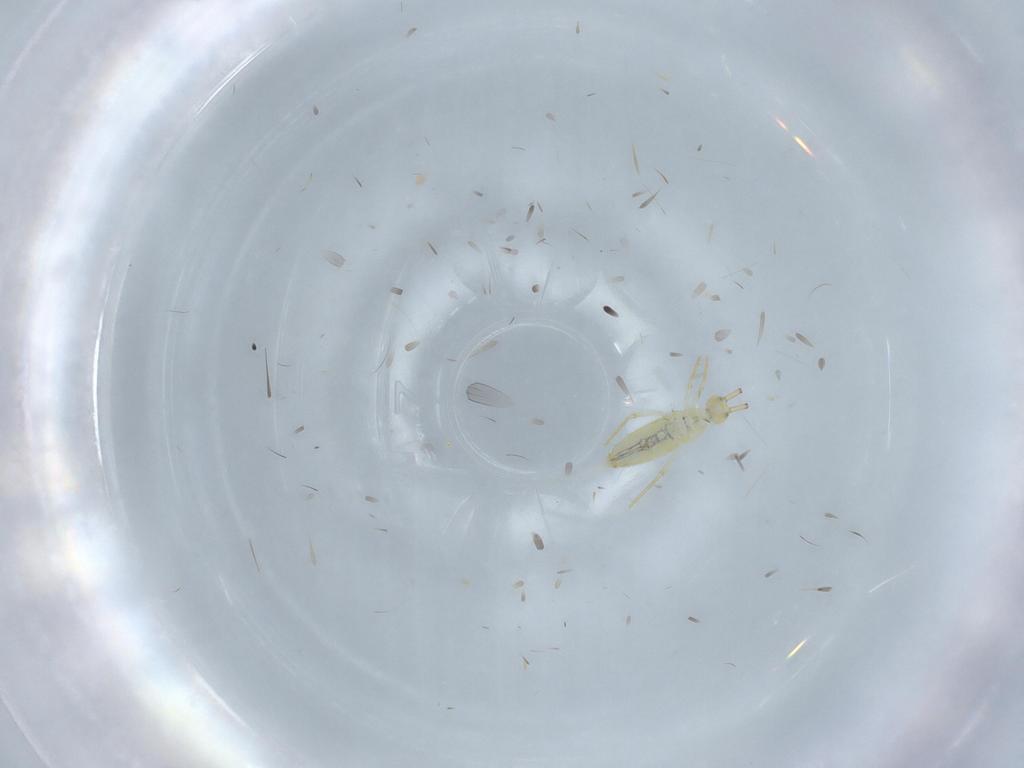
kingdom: Animalia
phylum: Arthropoda
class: Collembola
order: Entomobryomorpha
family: Paronellidae
